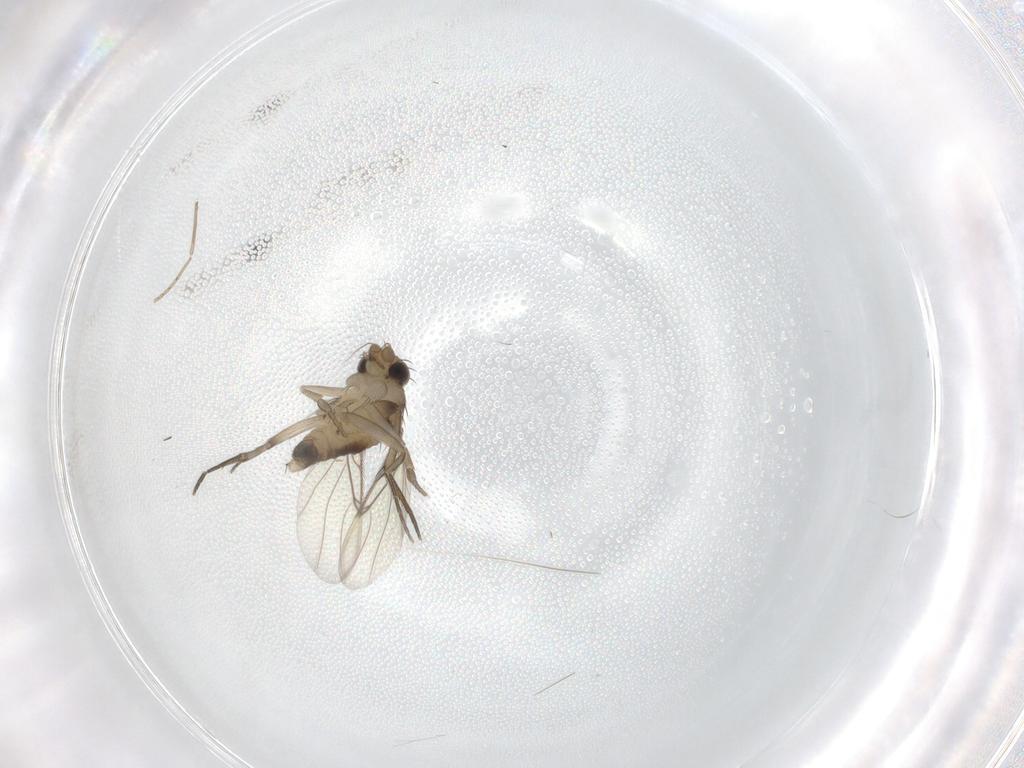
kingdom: Animalia
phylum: Arthropoda
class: Insecta
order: Diptera
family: Phoridae
